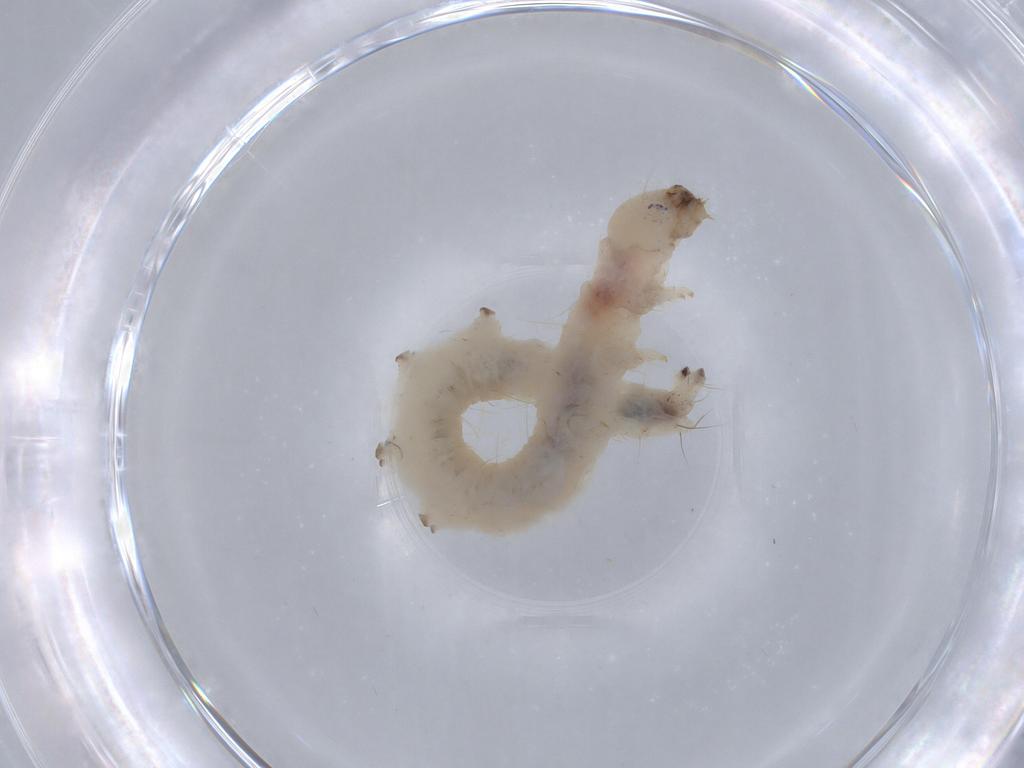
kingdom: Animalia
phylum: Arthropoda
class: Insecta
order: Lepidoptera
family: Depressariidae
